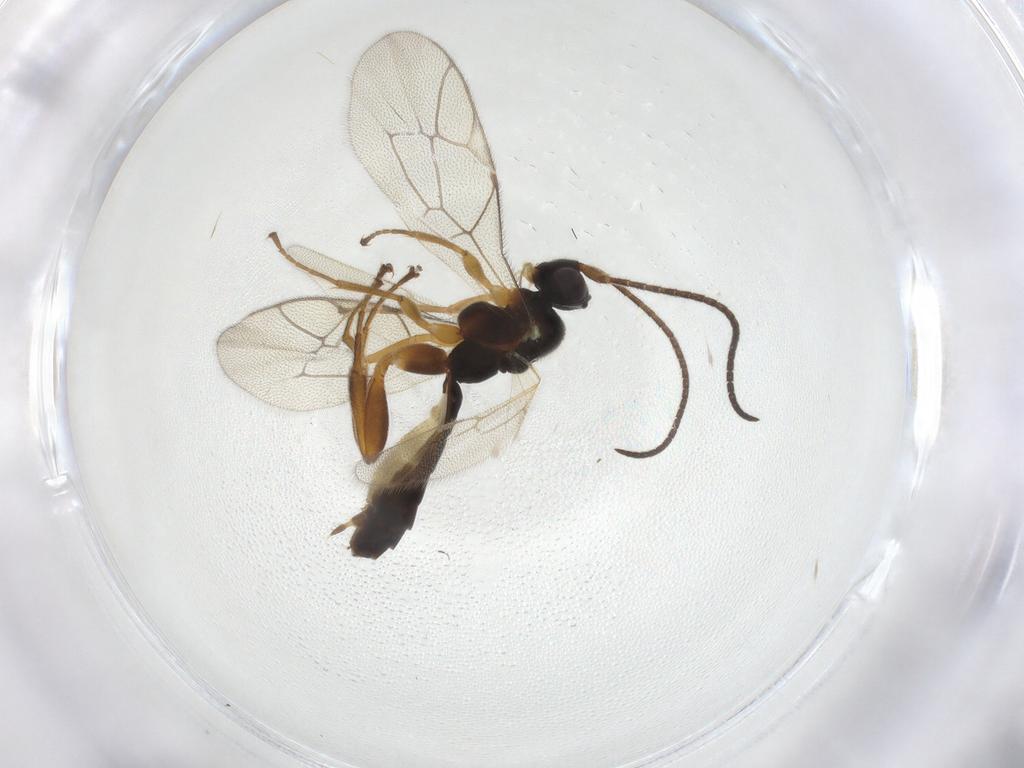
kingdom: Animalia
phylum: Arthropoda
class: Insecta
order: Hymenoptera
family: Ichneumonidae
